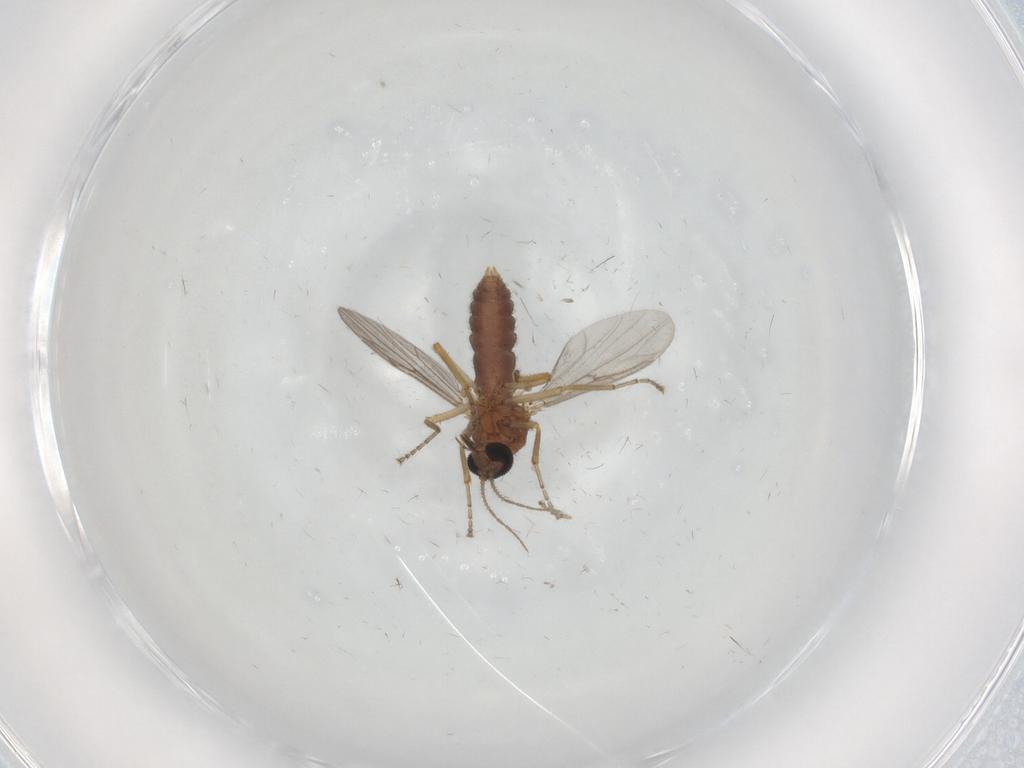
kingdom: Animalia
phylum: Arthropoda
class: Insecta
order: Diptera
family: Ceratopogonidae
